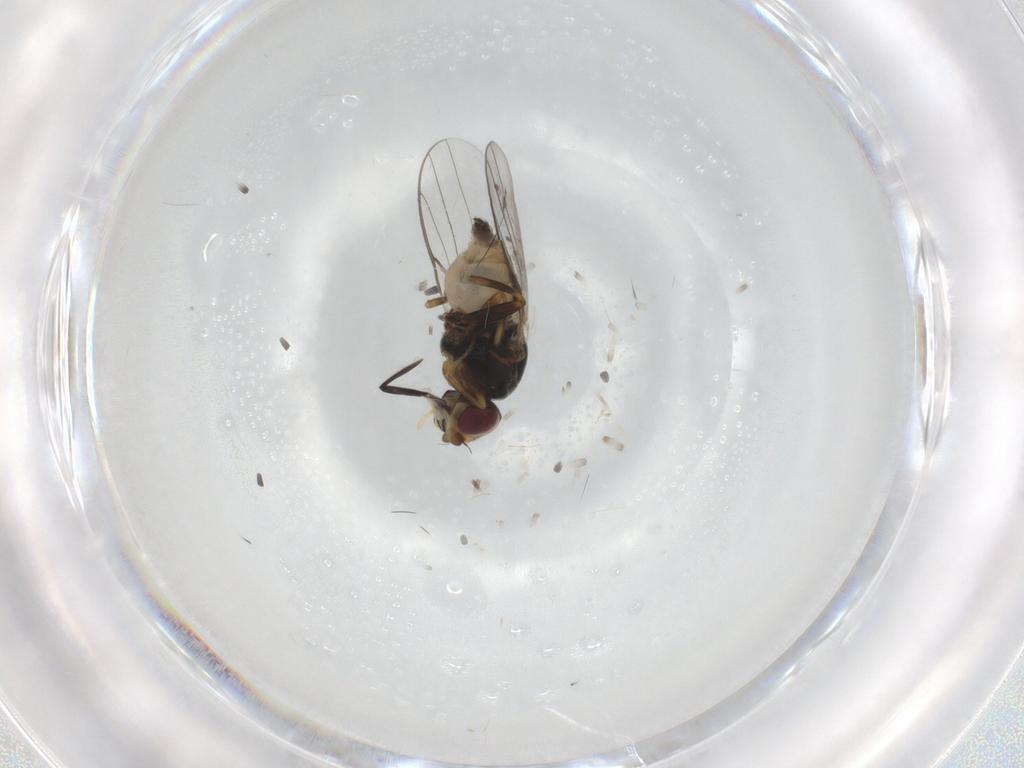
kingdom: Animalia
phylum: Arthropoda
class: Insecta
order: Diptera
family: Chloropidae
